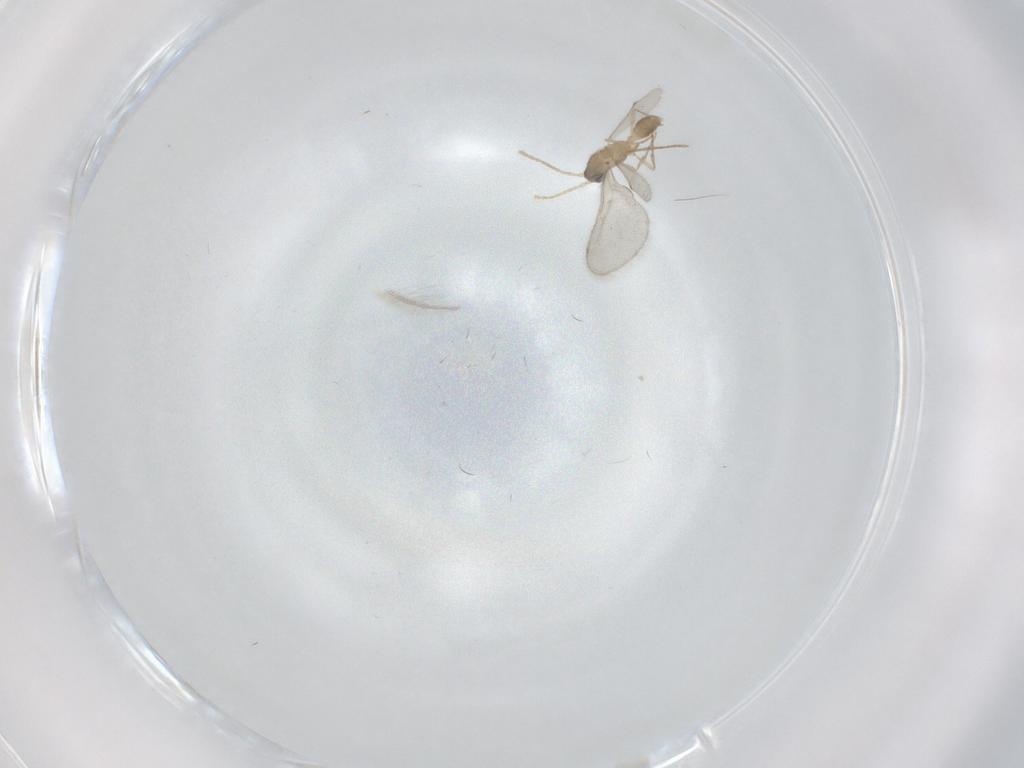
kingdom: Animalia
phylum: Arthropoda
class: Insecta
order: Hymenoptera
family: Formicidae
